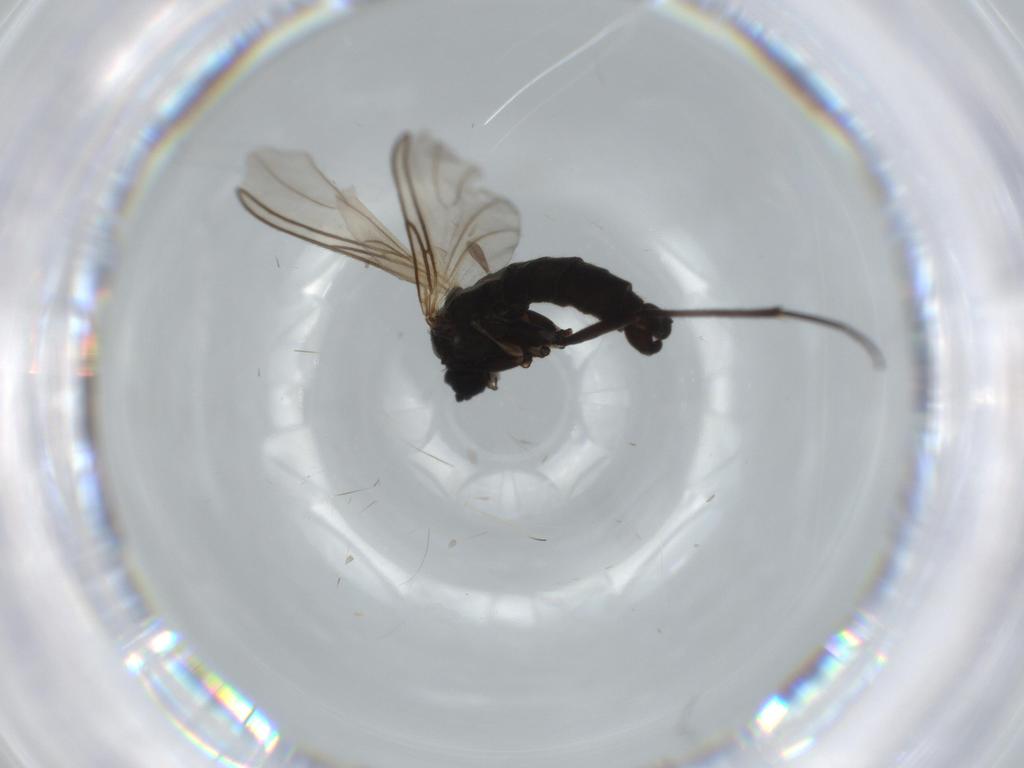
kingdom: Animalia
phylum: Arthropoda
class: Insecta
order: Diptera
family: Sciaridae
